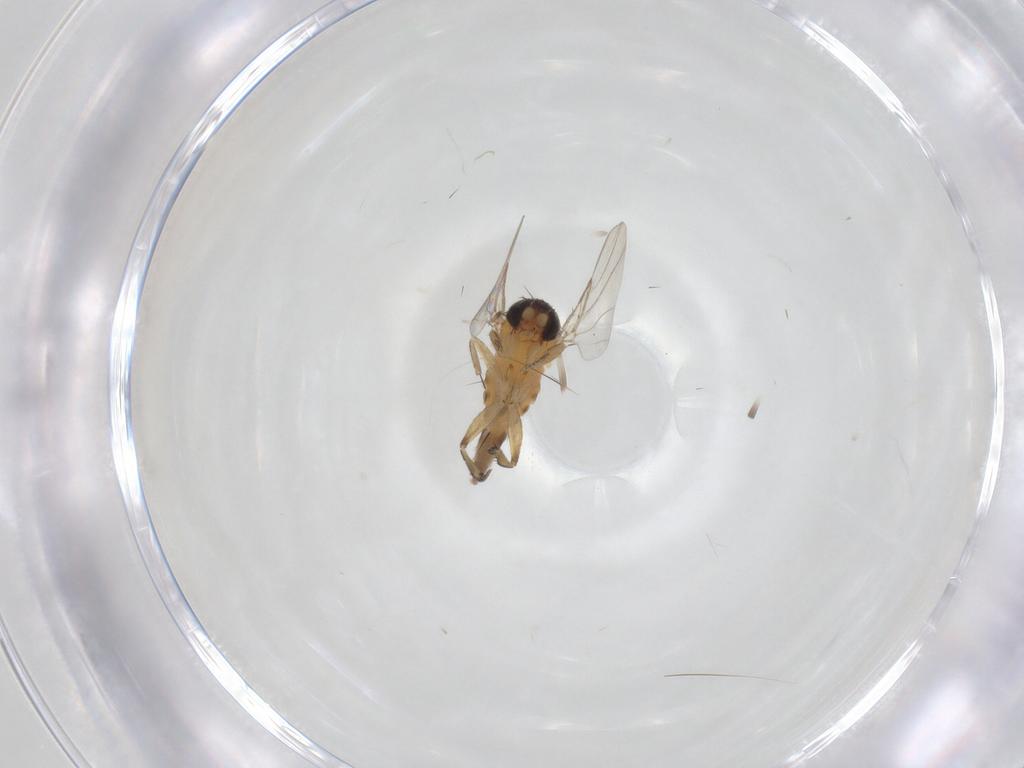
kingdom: Animalia
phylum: Arthropoda
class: Insecta
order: Diptera
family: Phoridae
